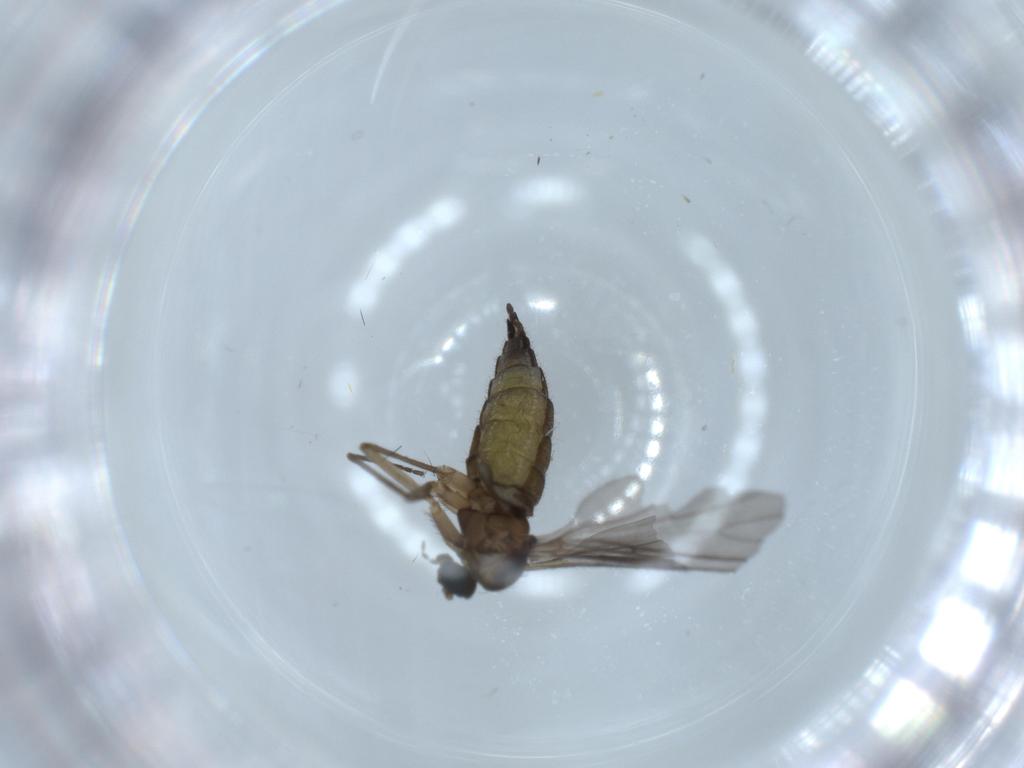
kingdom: Animalia
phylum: Arthropoda
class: Insecta
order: Diptera
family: Sciaridae
